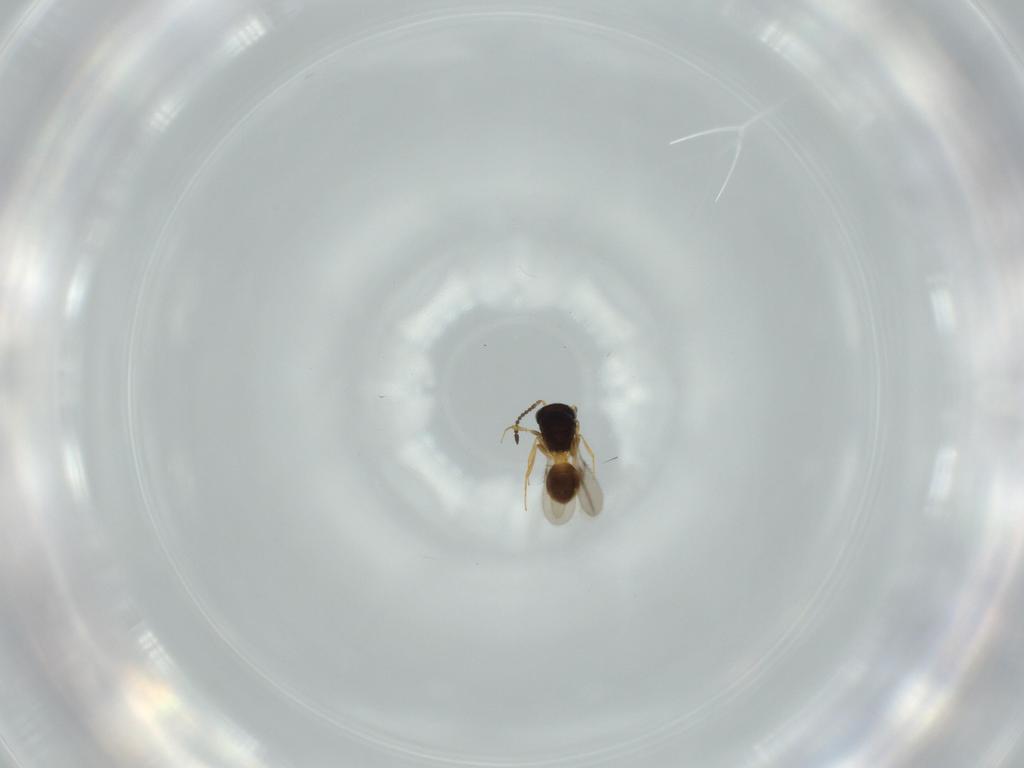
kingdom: Animalia
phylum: Arthropoda
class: Insecta
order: Hymenoptera
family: Scelionidae
